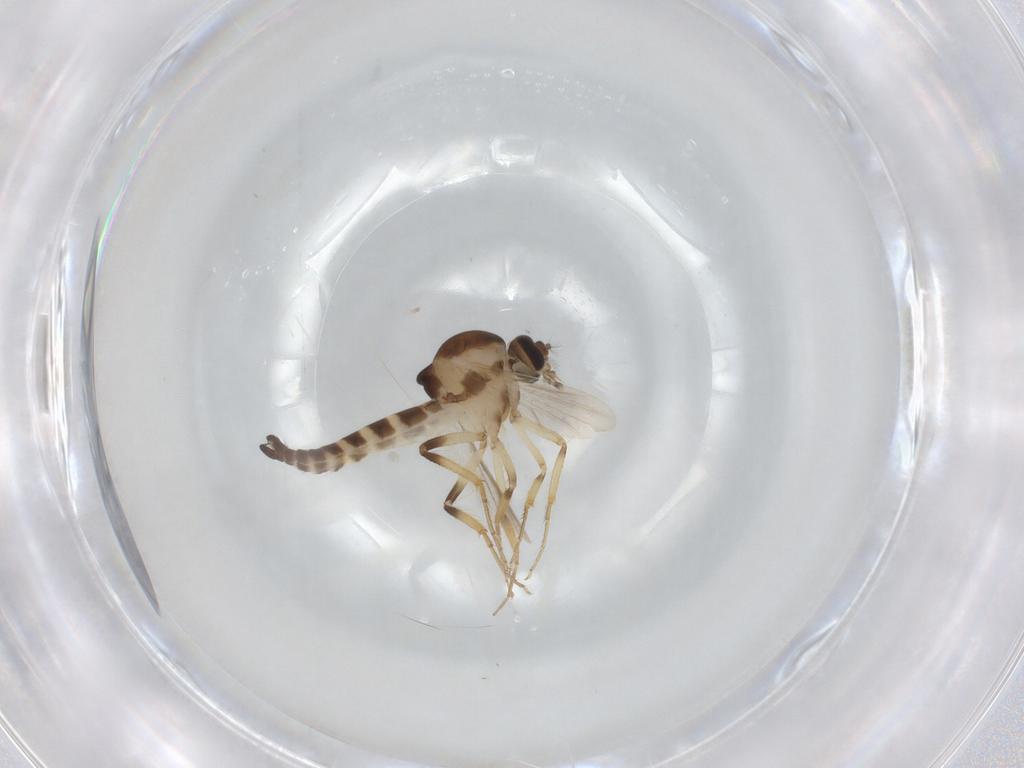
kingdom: Animalia
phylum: Arthropoda
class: Insecta
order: Diptera
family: Ceratopogonidae
